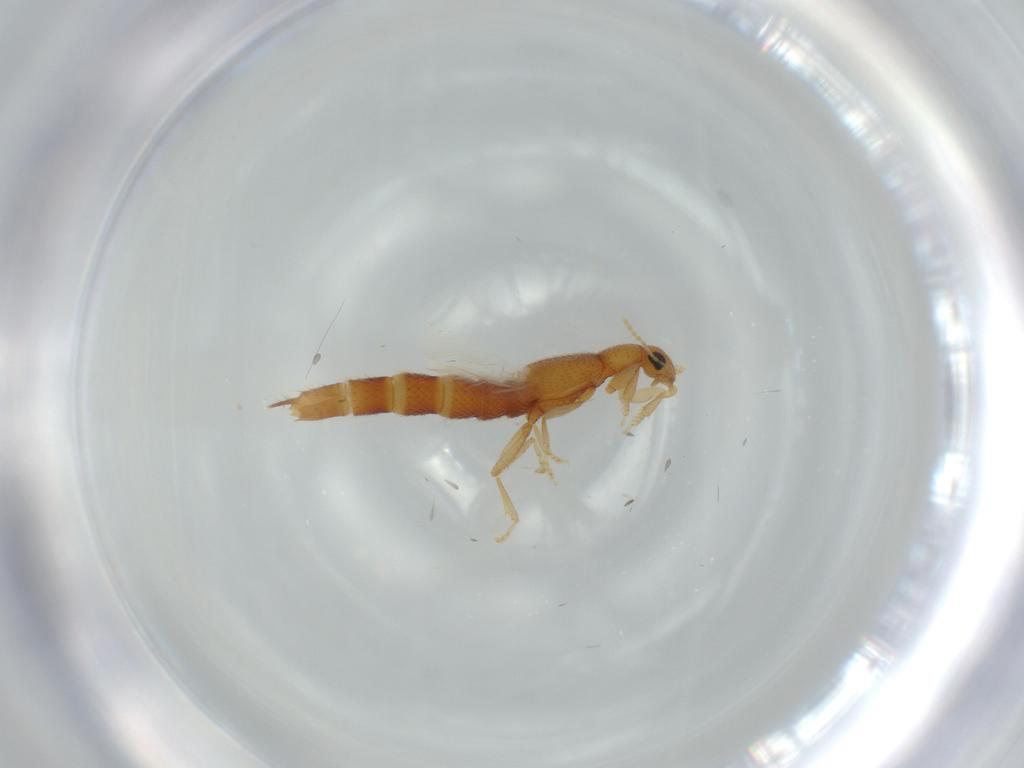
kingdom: Animalia
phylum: Arthropoda
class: Insecta
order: Coleoptera
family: Staphylinidae
